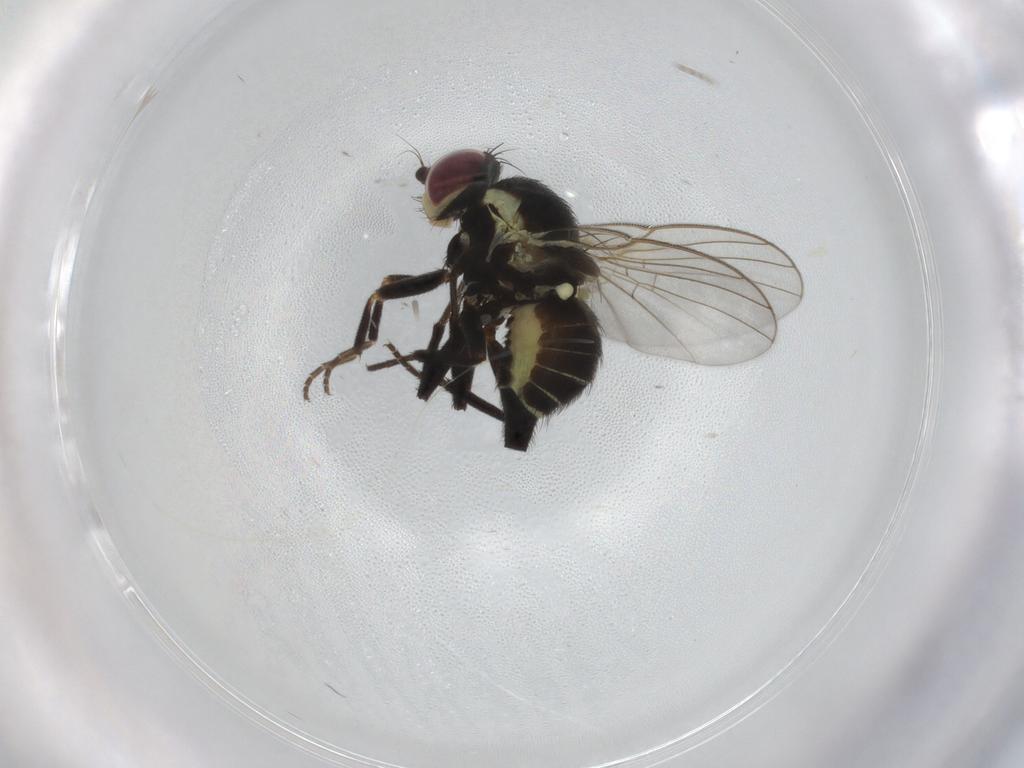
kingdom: Animalia
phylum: Arthropoda
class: Insecta
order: Diptera
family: Agromyzidae
